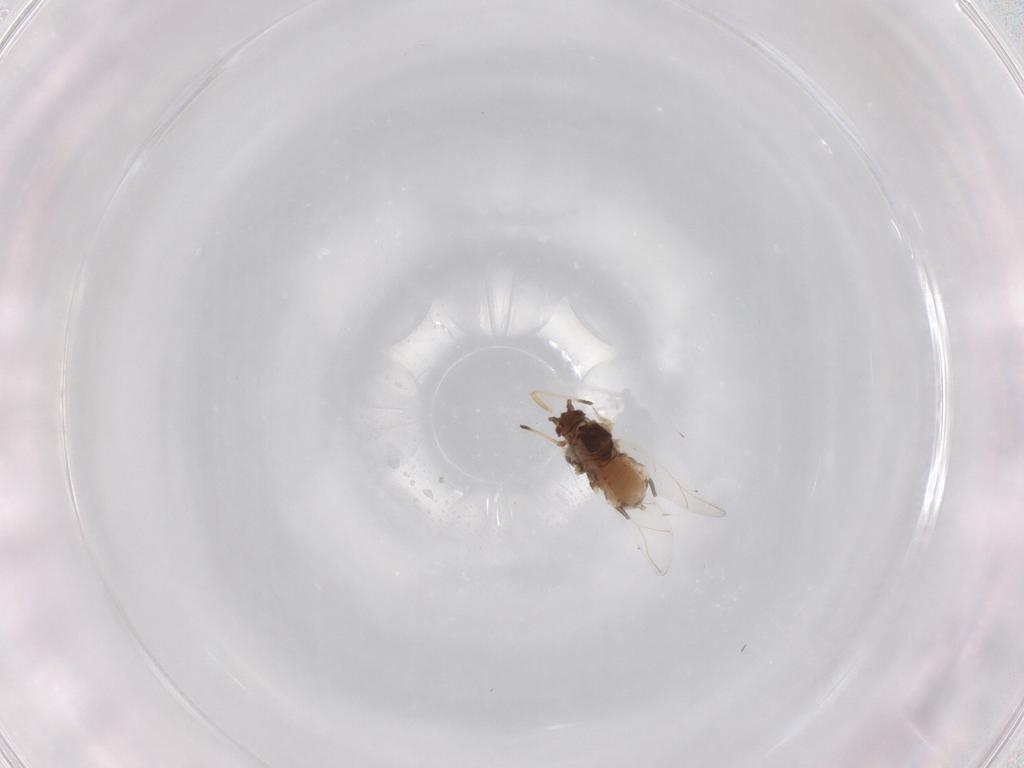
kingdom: Animalia
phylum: Arthropoda
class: Insecta
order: Hemiptera
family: Aphididae
